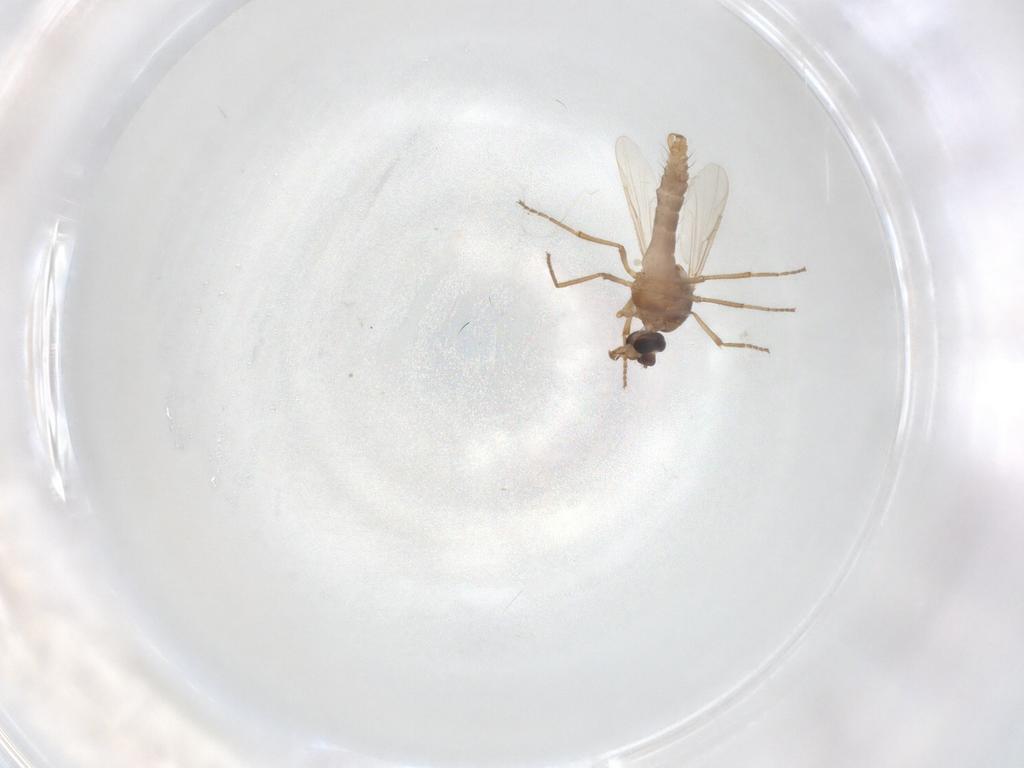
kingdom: Animalia
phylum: Arthropoda
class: Insecta
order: Diptera
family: Ceratopogonidae
